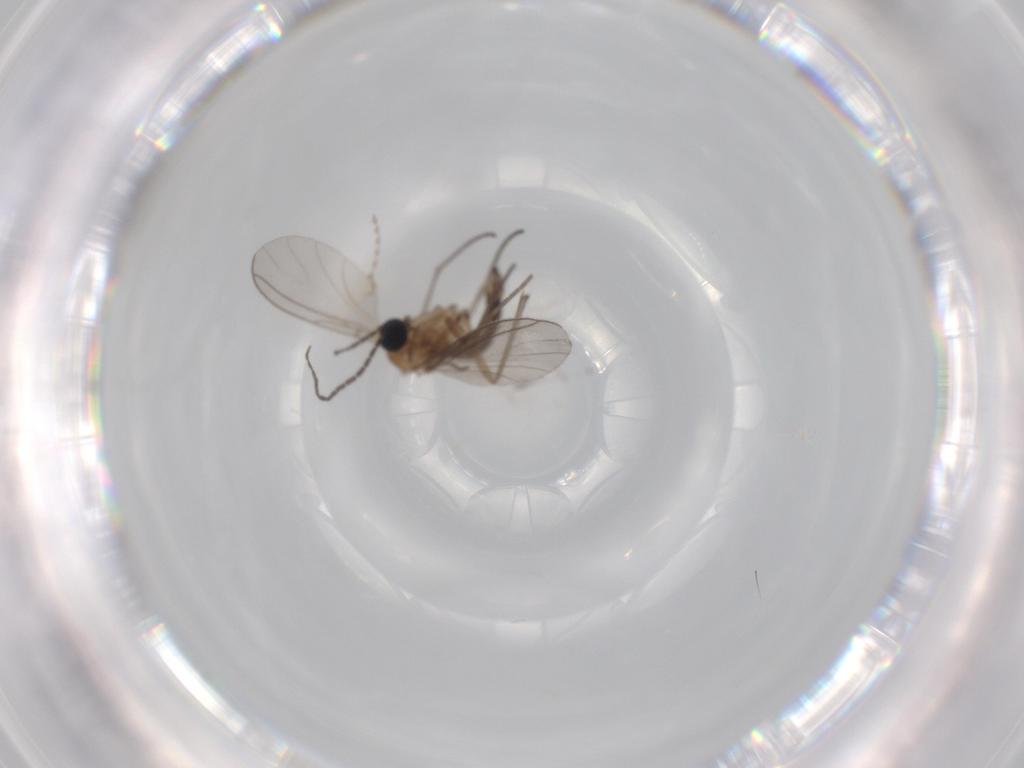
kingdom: Animalia
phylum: Arthropoda
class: Insecta
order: Diptera
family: Sciaridae
